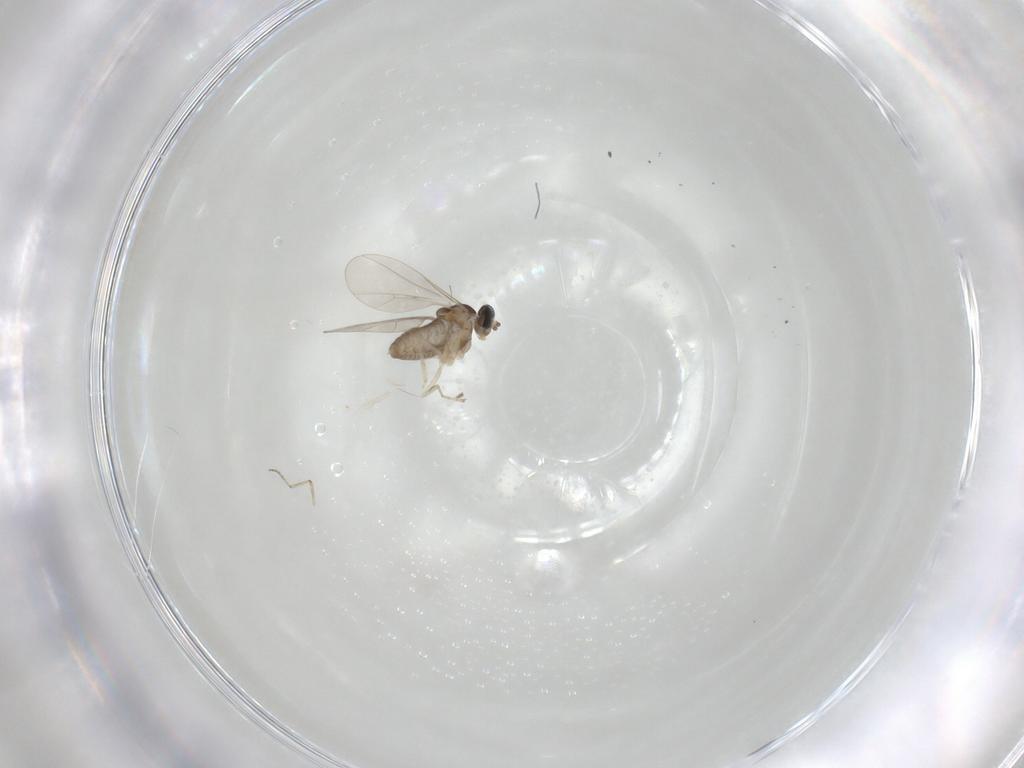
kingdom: Animalia
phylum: Arthropoda
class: Insecta
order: Diptera
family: Ceratopogonidae
